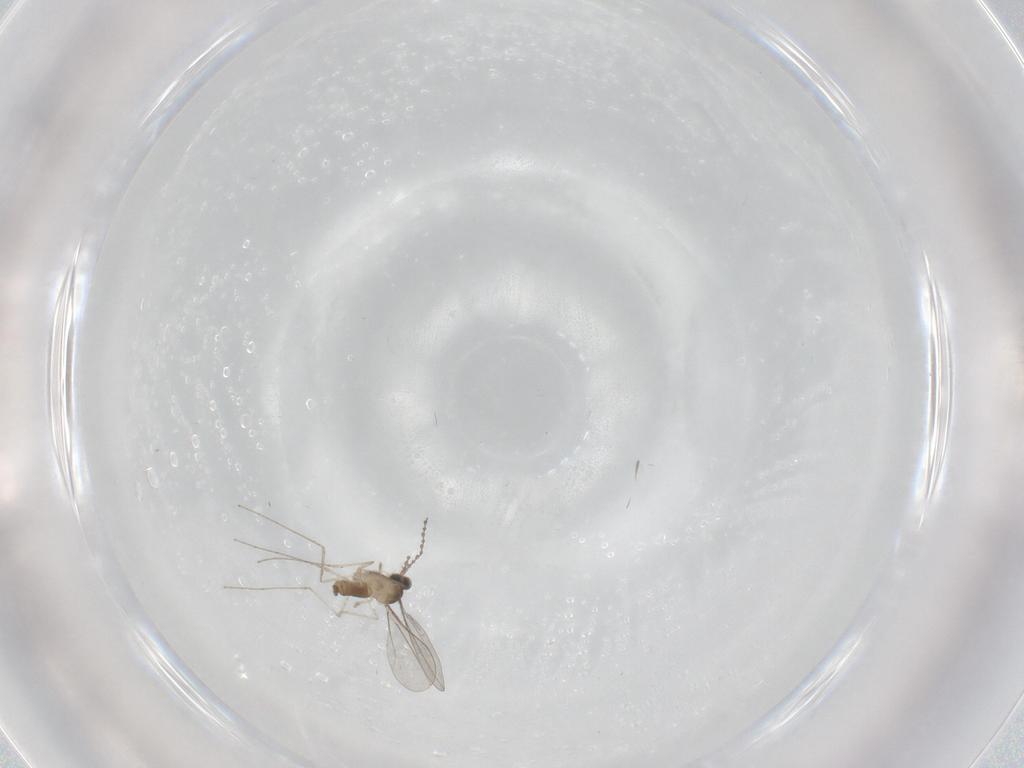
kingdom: Animalia
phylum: Arthropoda
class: Insecta
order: Diptera
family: Cecidomyiidae
